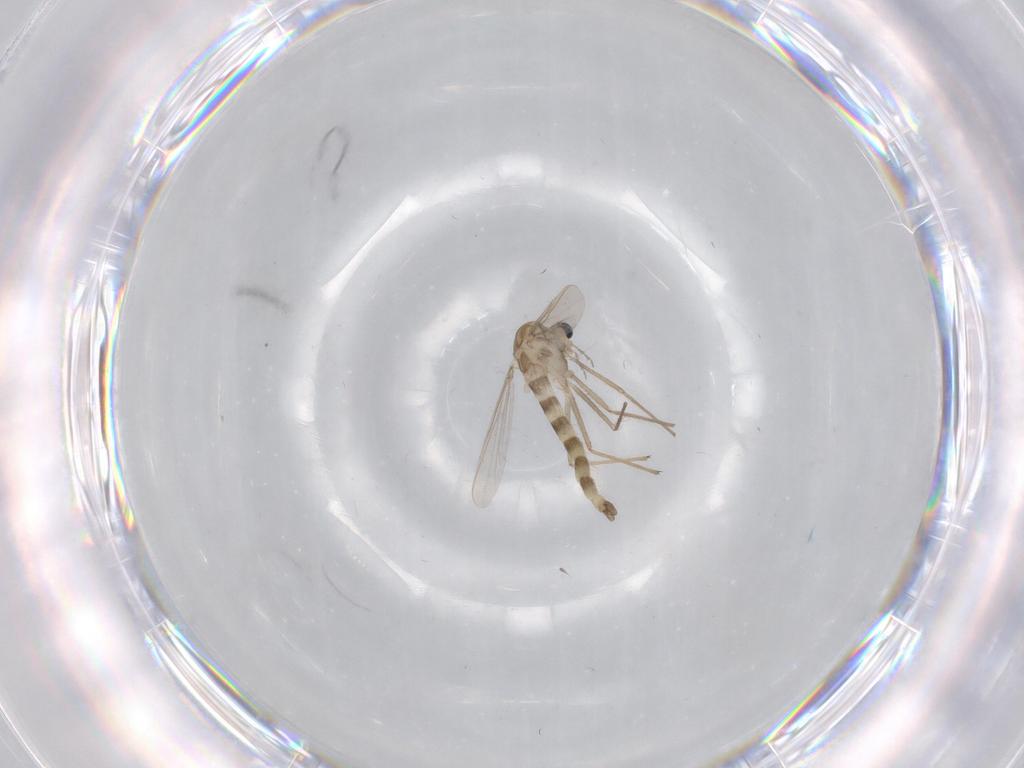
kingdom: Animalia
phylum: Arthropoda
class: Insecta
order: Diptera
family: Chironomidae
